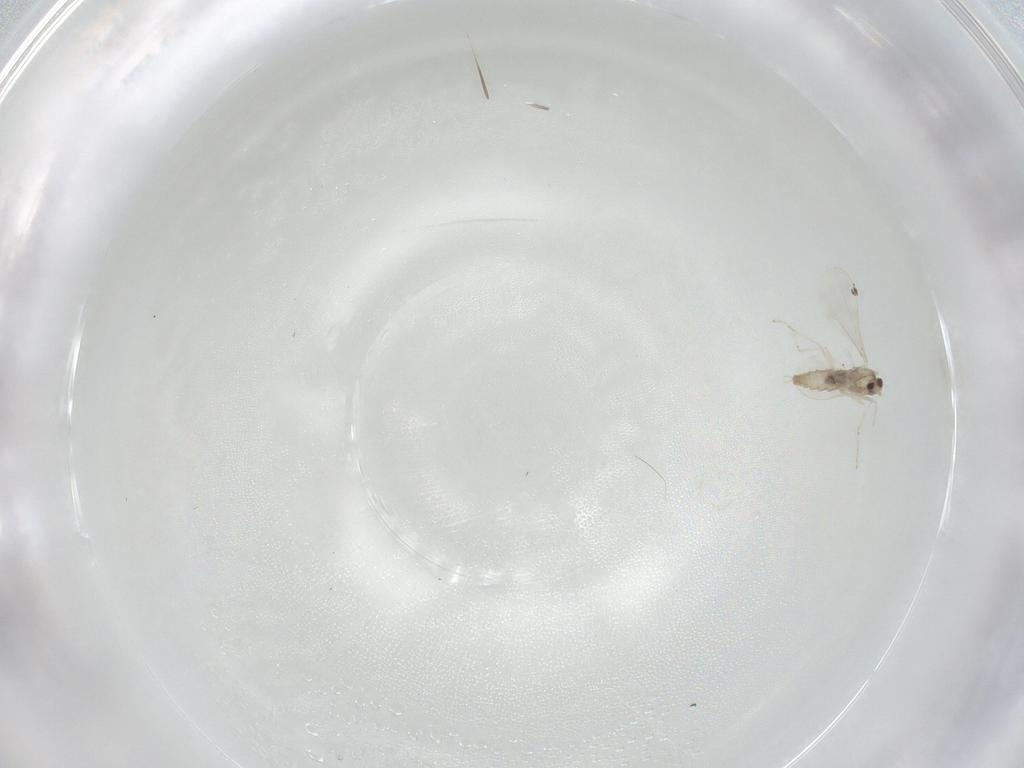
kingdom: Animalia
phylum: Arthropoda
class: Insecta
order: Diptera
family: Cecidomyiidae
